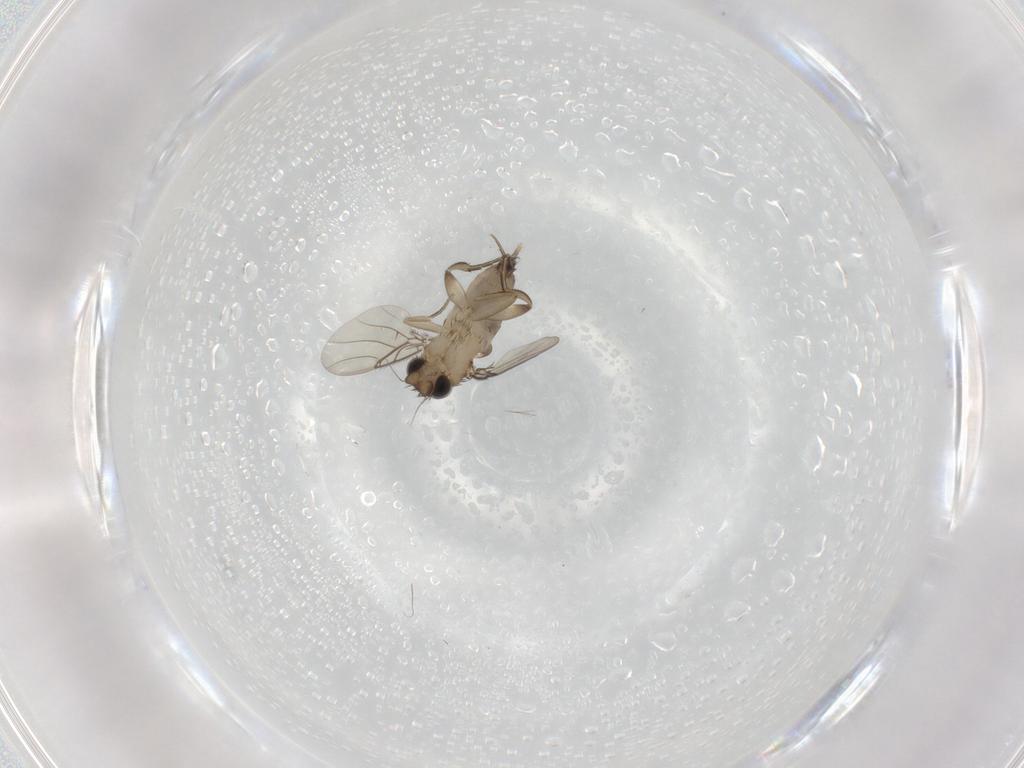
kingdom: Animalia
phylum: Arthropoda
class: Insecta
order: Diptera
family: Phoridae
